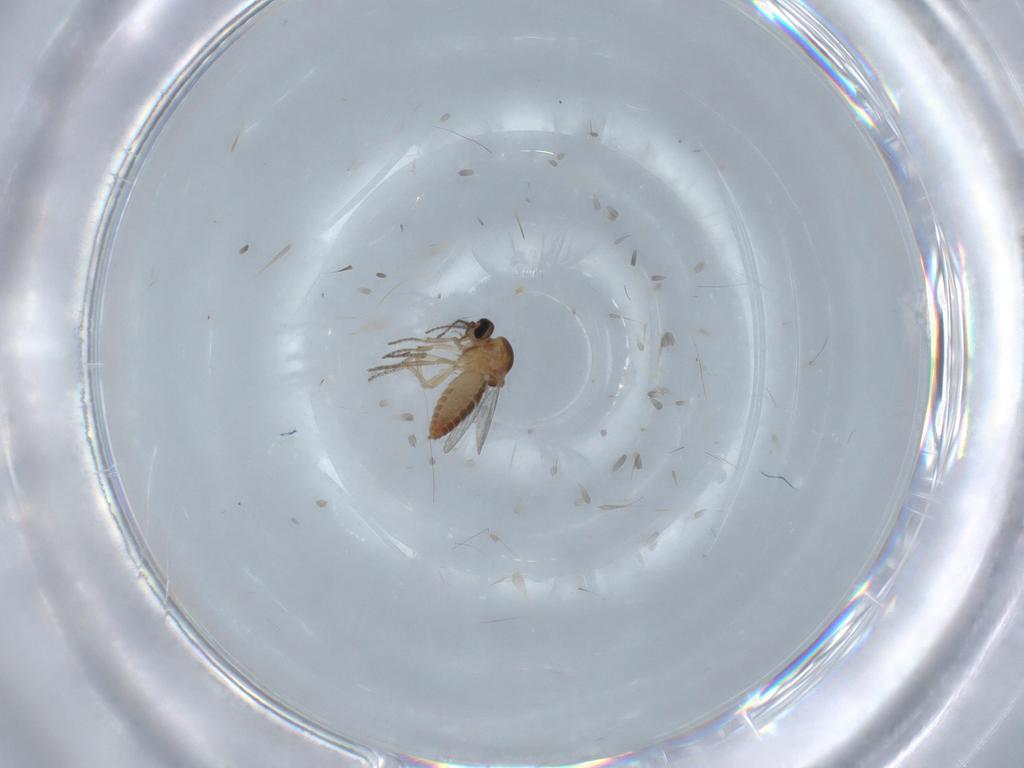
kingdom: Animalia
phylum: Arthropoda
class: Insecta
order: Diptera
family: Ceratopogonidae
